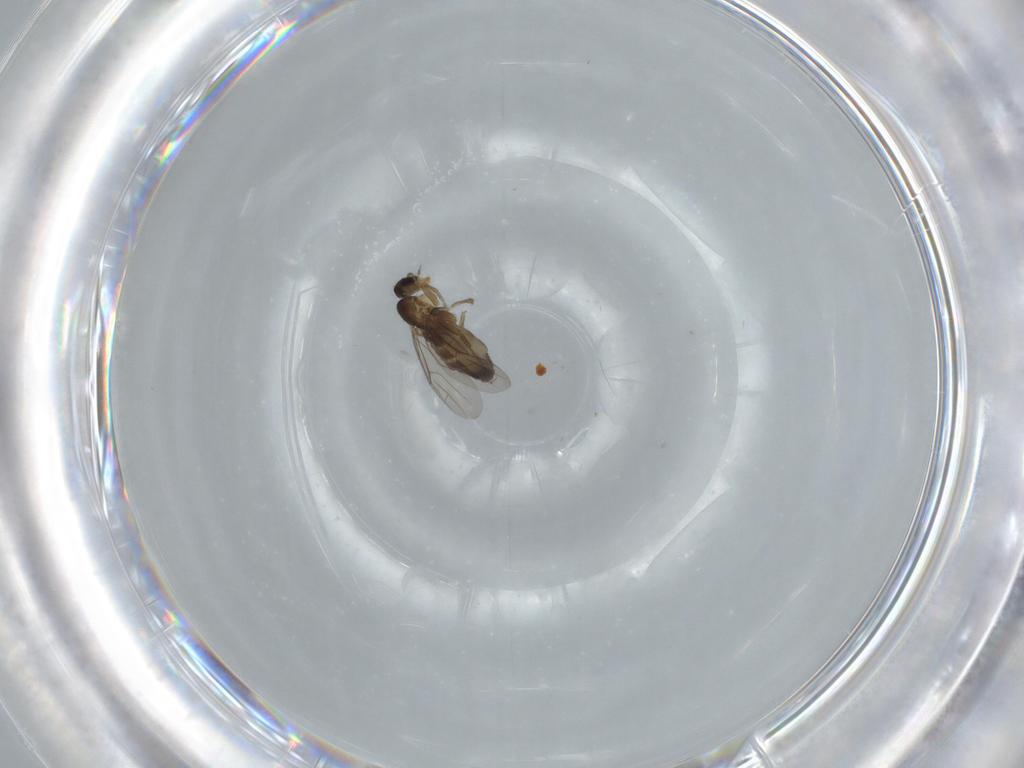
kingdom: Animalia
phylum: Arthropoda
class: Insecta
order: Diptera
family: Phoridae
